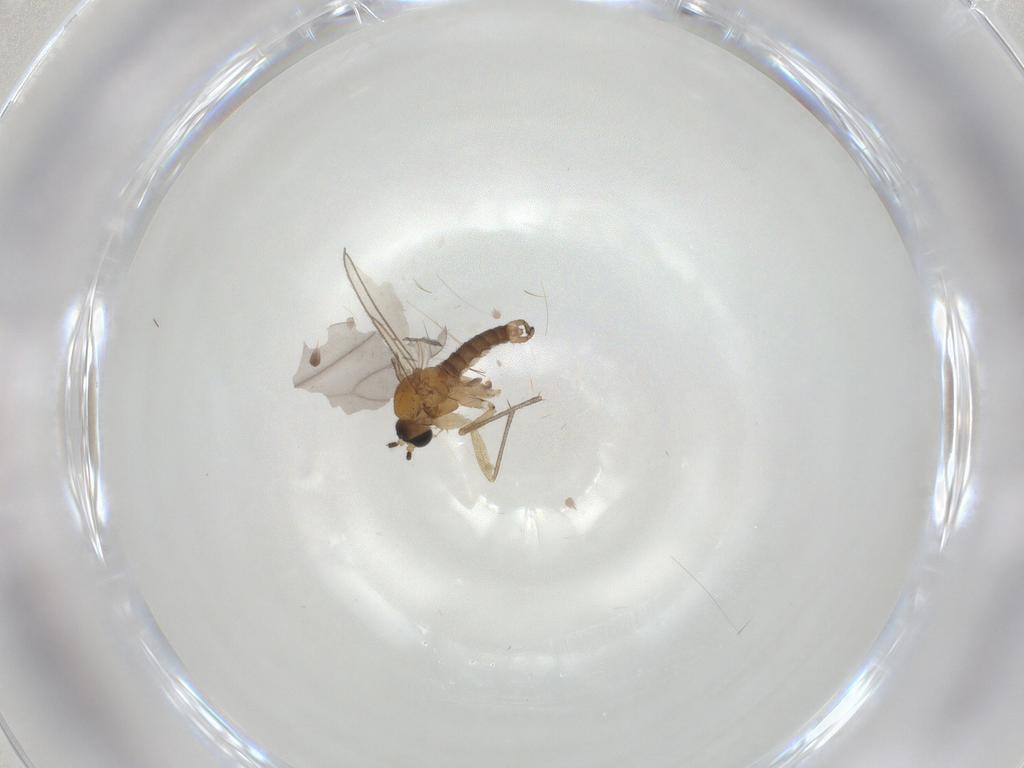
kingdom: Animalia
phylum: Arthropoda
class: Insecta
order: Diptera
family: Sciaridae
